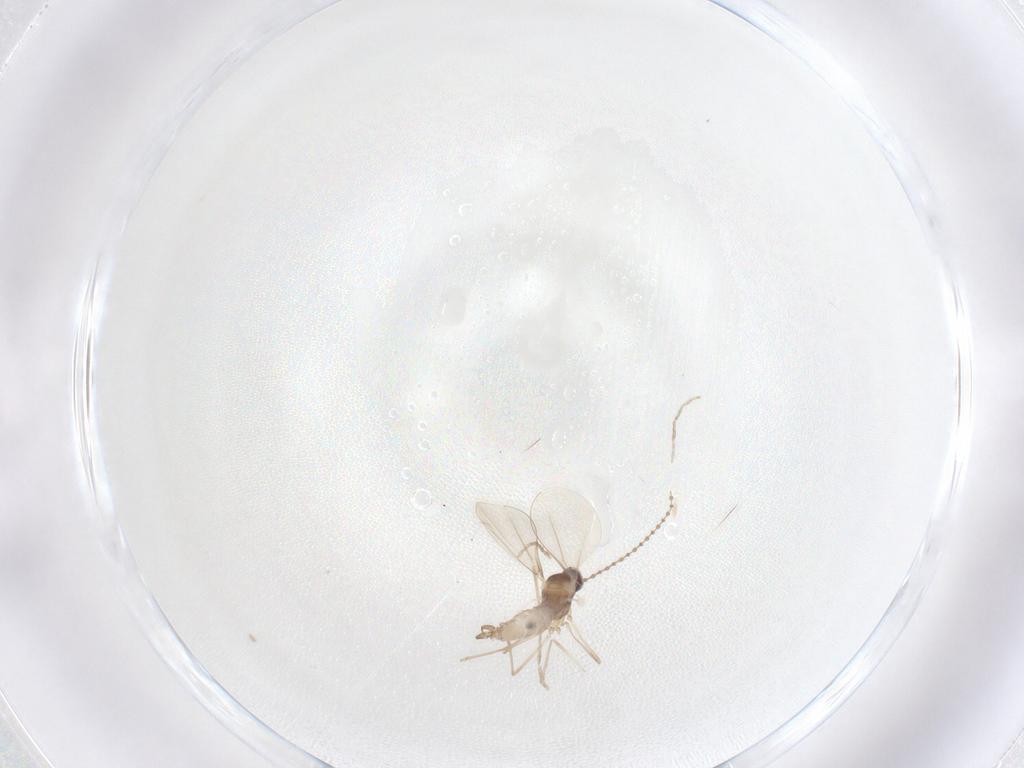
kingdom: Animalia
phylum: Arthropoda
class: Insecta
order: Diptera
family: Cecidomyiidae
